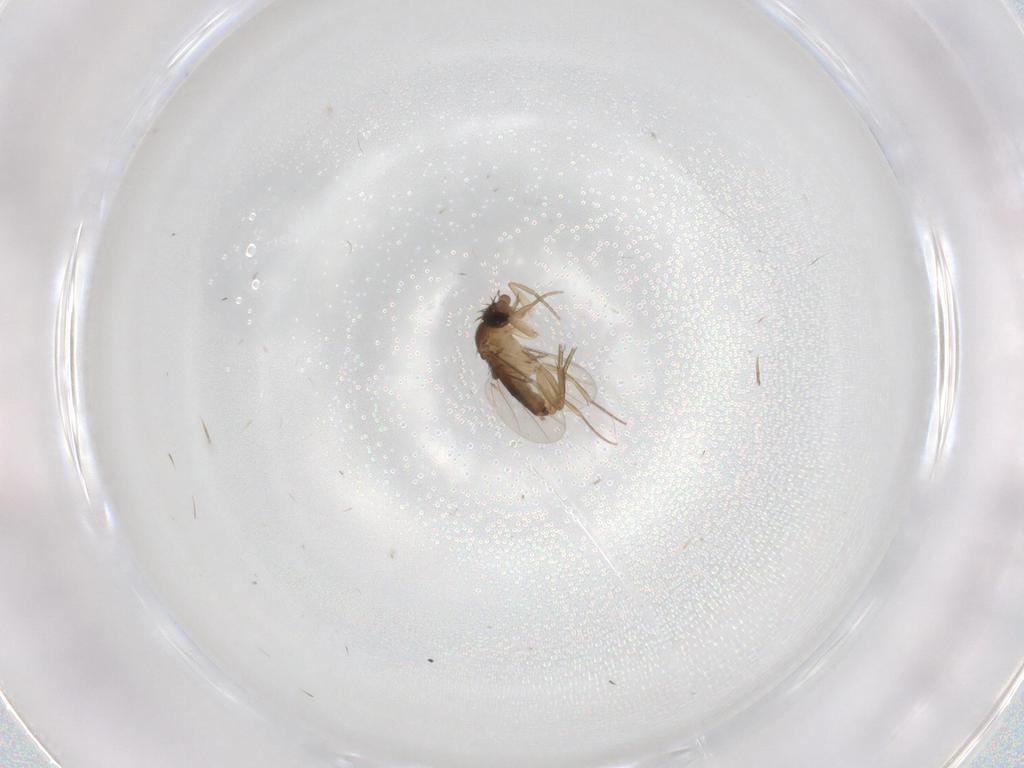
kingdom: Animalia
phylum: Arthropoda
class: Insecta
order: Diptera
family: Phoridae
